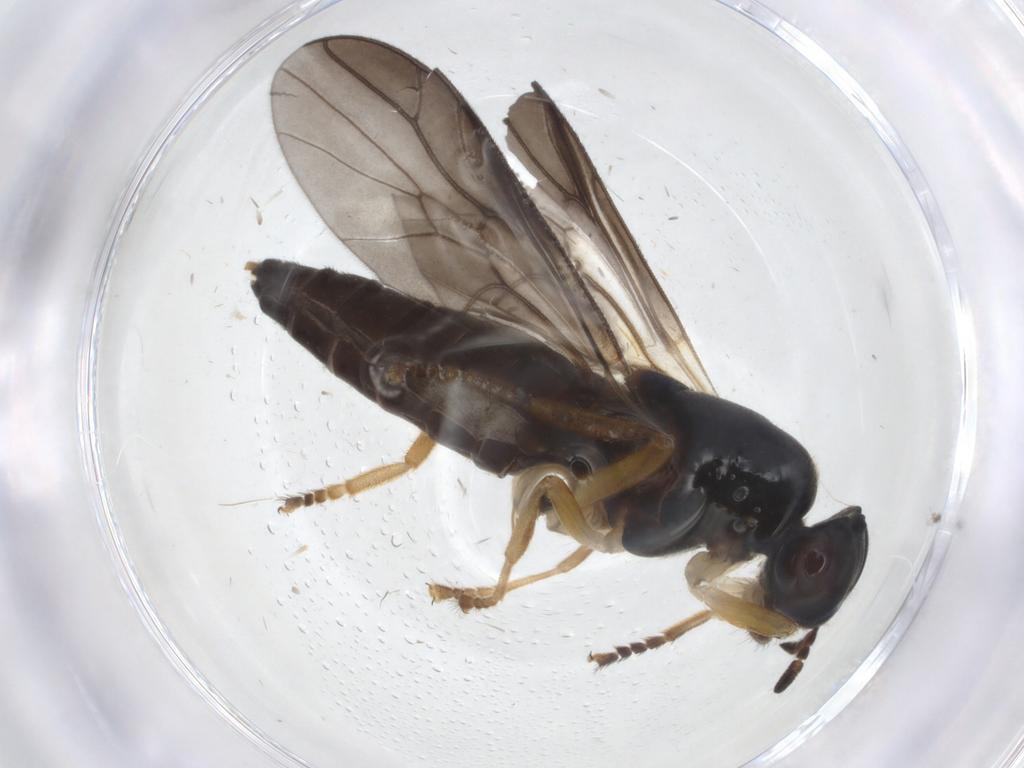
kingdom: Animalia
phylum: Arthropoda
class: Insecta
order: Diptera
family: Stratiomyidae
